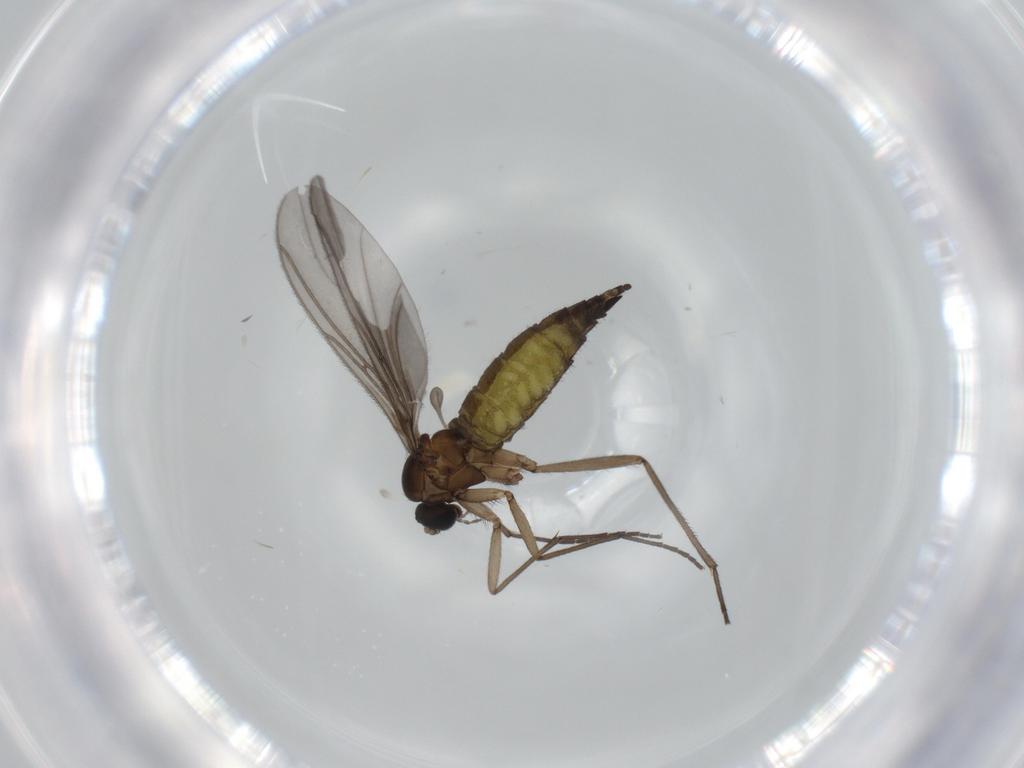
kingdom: Animalia
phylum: Arthropoda
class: Insecta
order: Diptera
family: Sciaridae
